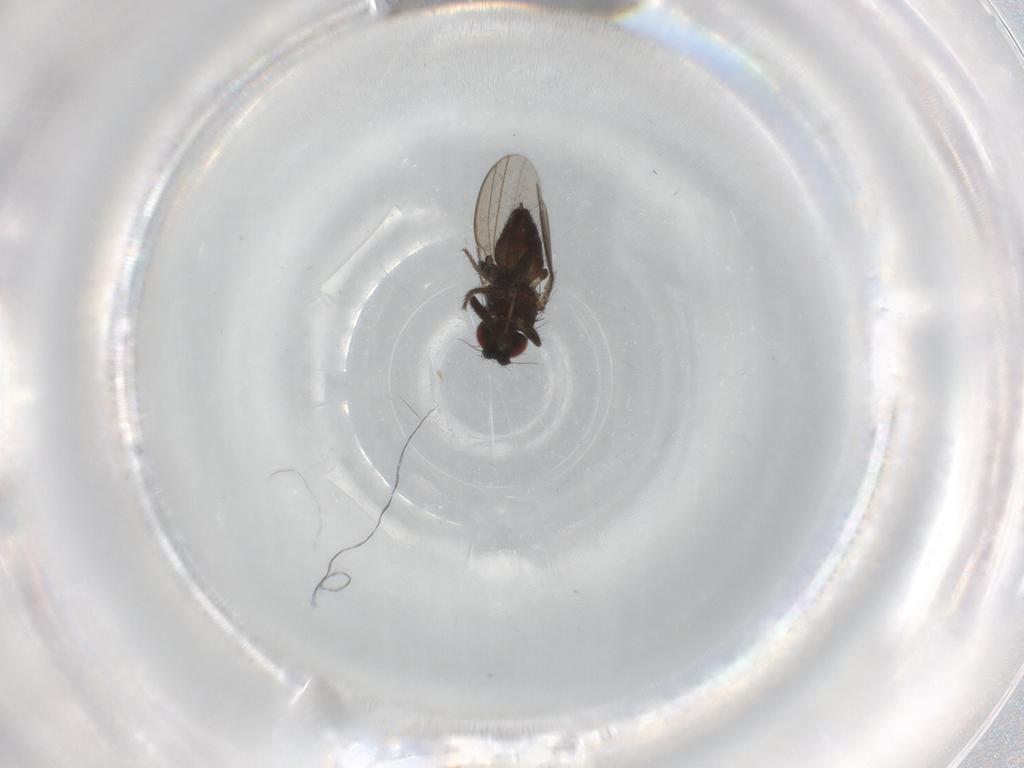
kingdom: Animalia
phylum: Arthropoda
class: Insecta
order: Diptera
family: Milichiidae
